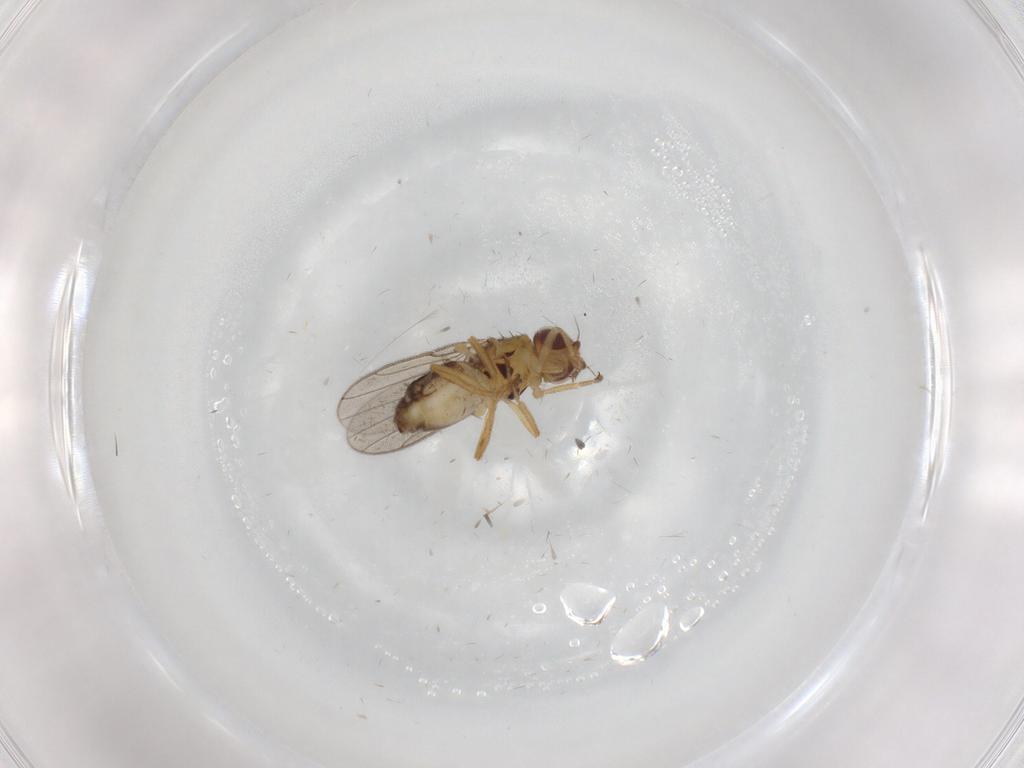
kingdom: Animalia
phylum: Arthropoda
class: Insecta
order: Diptera
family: Chloropidae
